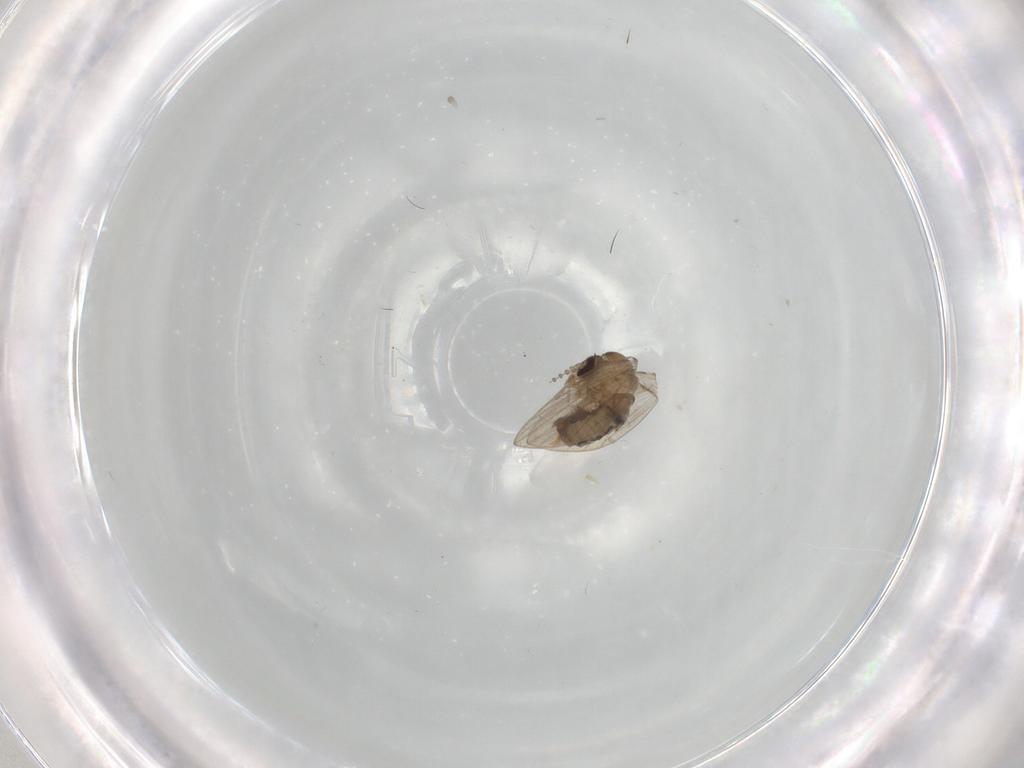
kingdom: Animalia
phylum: Arthropoda
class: Insecta
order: Diptera
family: Psychodidae
